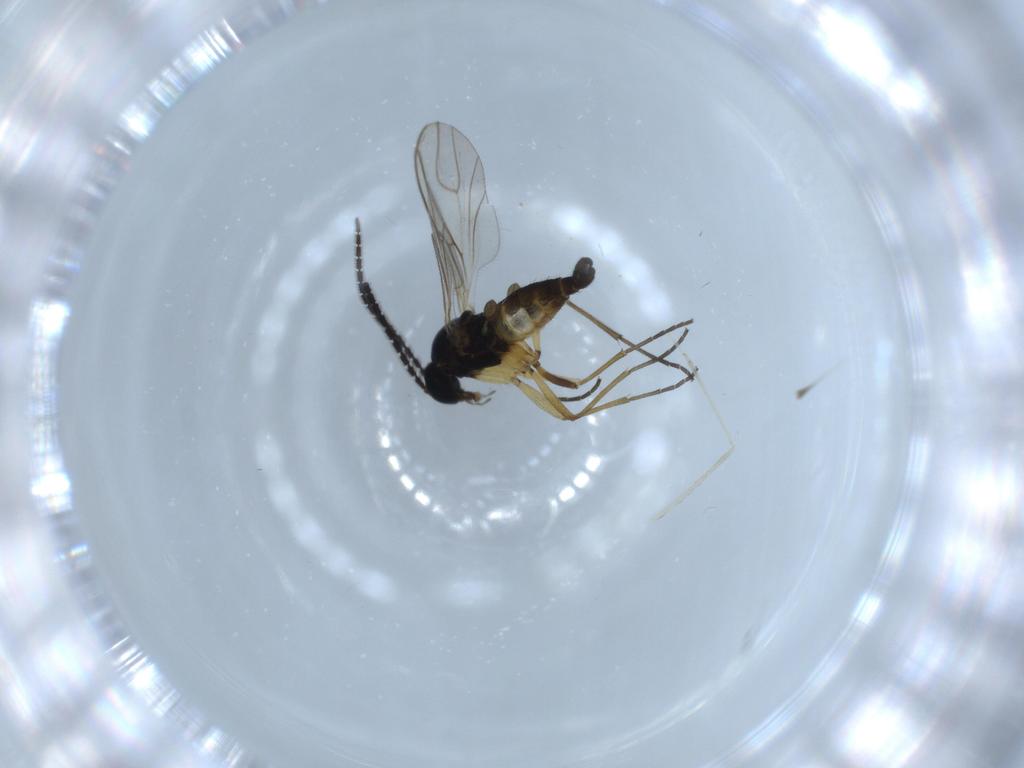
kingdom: Animalia
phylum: Arthropoda
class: Insecta
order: Diptera
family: Sciaridae
